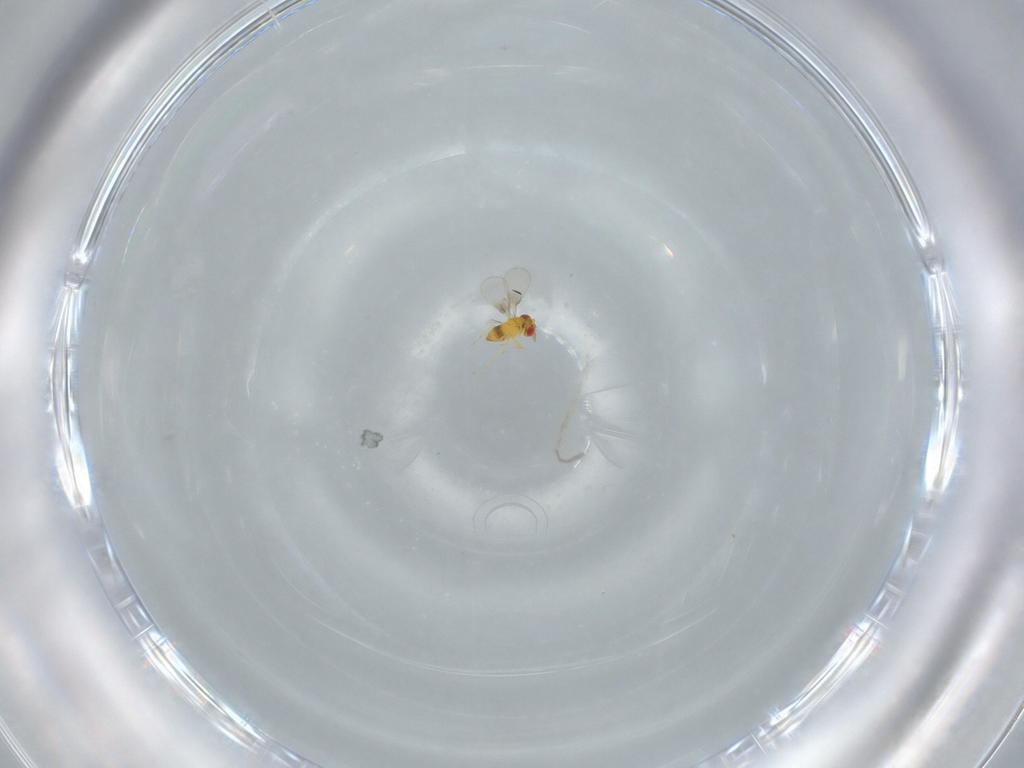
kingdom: Animalia
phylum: Arthropoda
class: Insecta
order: Hymenoptera
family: Trichogrammatidae
